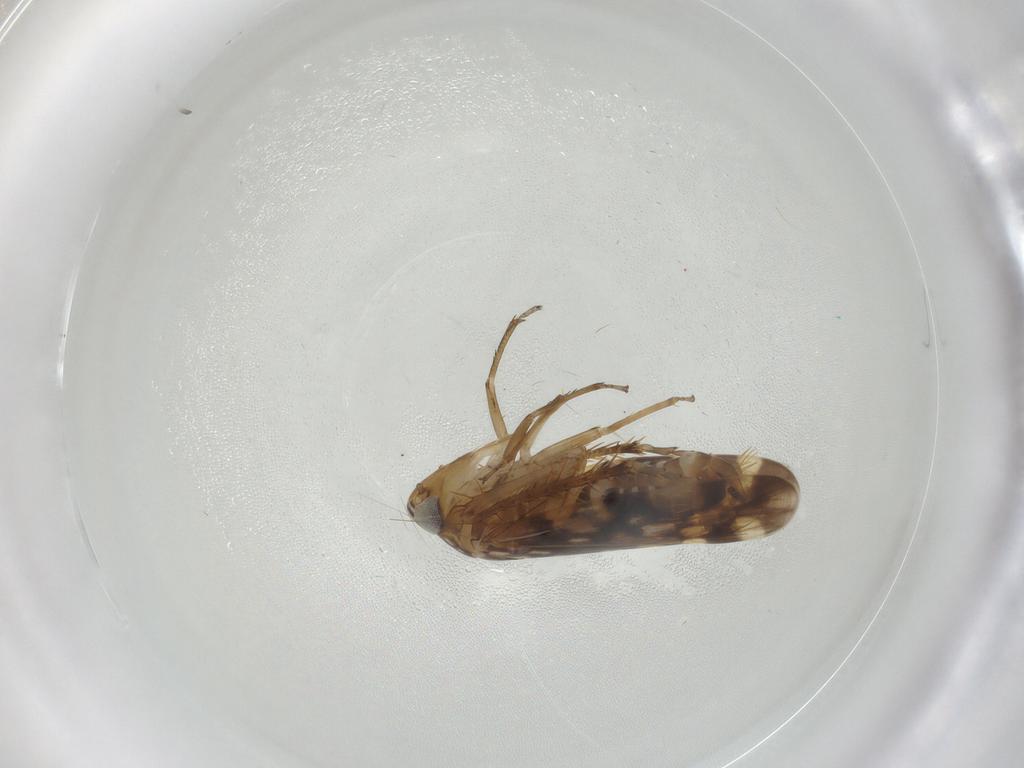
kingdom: Animalia
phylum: Arthropoda
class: Insecta
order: Hemiptera
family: Cicadellidae
